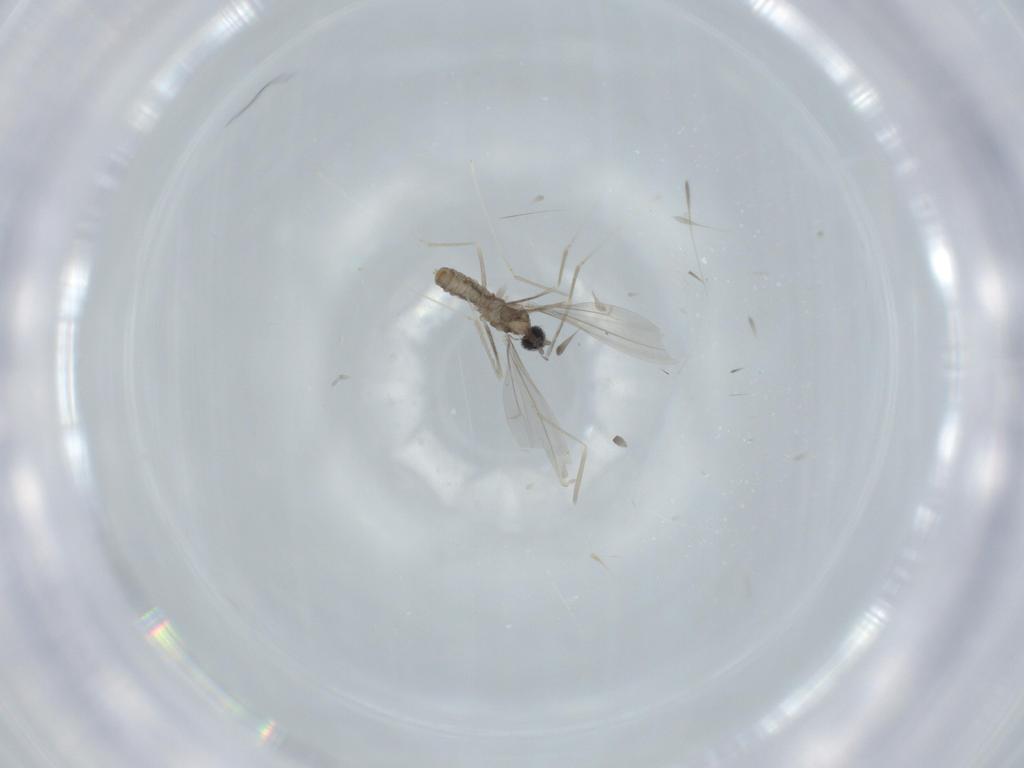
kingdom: Animalia
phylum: Arthropoda
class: Insecta
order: Diptera
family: Cecidomyiidae
